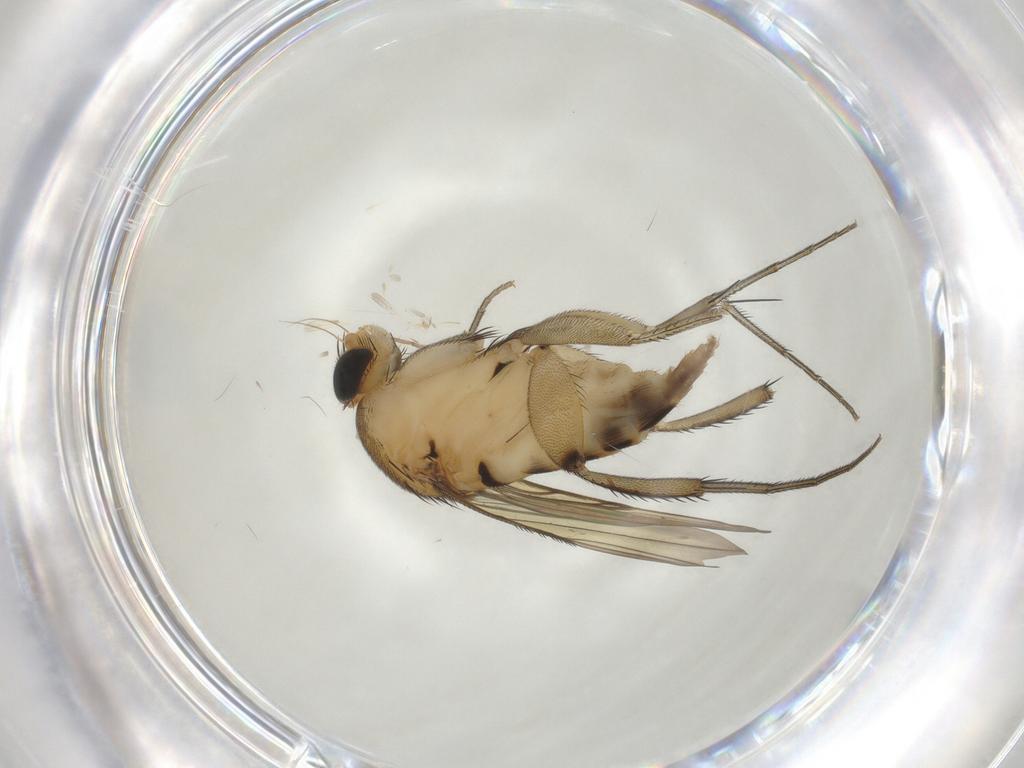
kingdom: Animalia
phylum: Arthropoda
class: Insecta
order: Diptera
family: Phoridae
